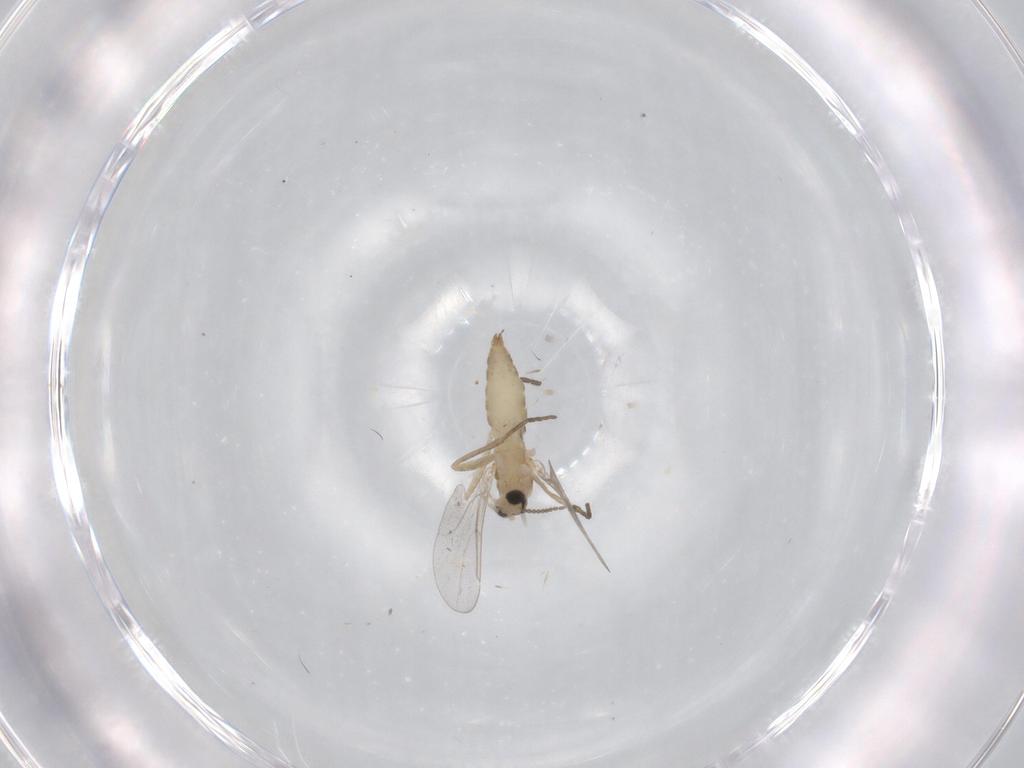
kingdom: Animalia
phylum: Arthropoda
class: Insecta
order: Diptera
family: Cecidomyiidae
